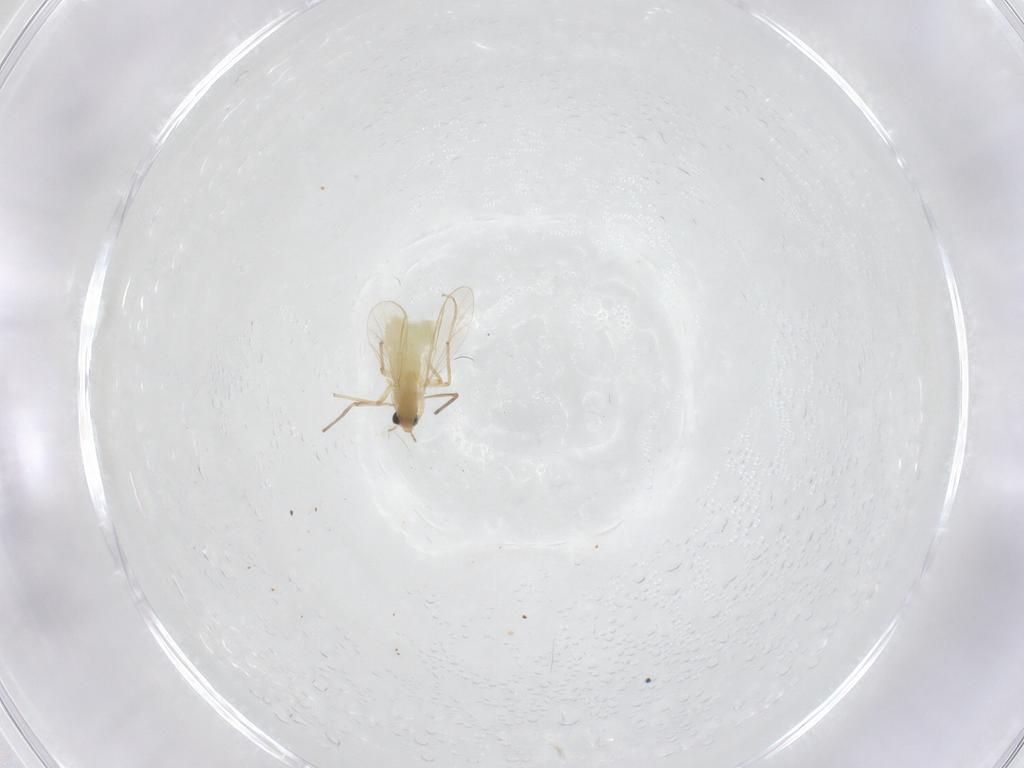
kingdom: Animalia
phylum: Arthropoda
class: Insecta
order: Diptera
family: Chironomidae
